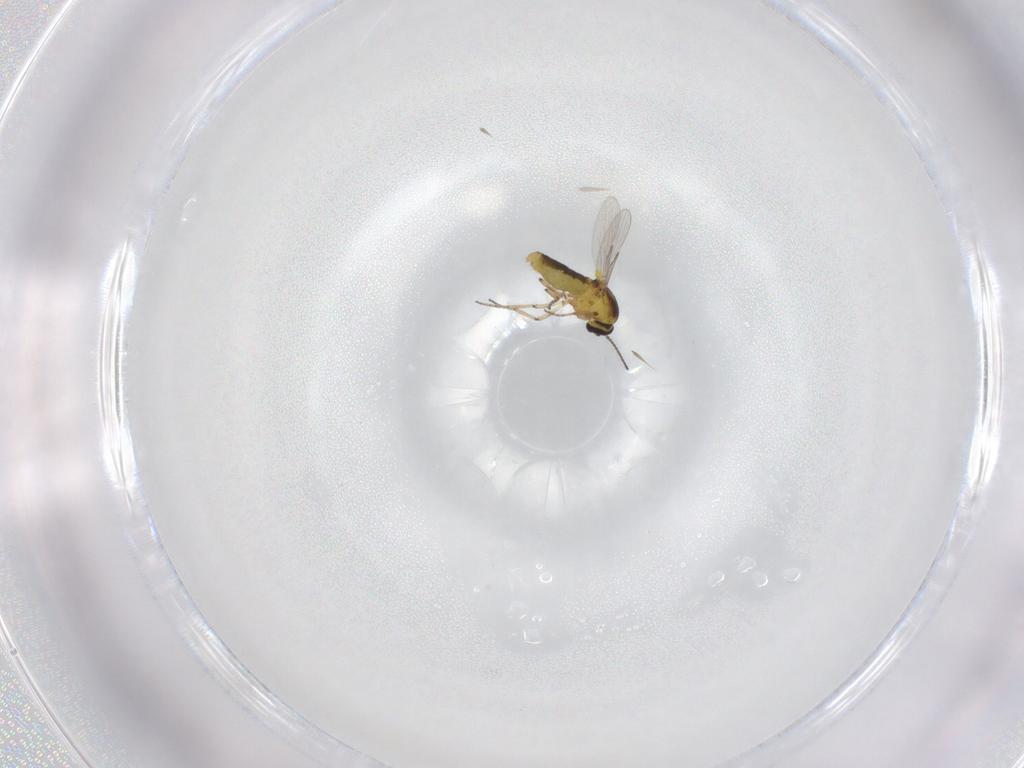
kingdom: Animalia
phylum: Arthropoda
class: Insecta
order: Diptera
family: Ceratopogonidae
